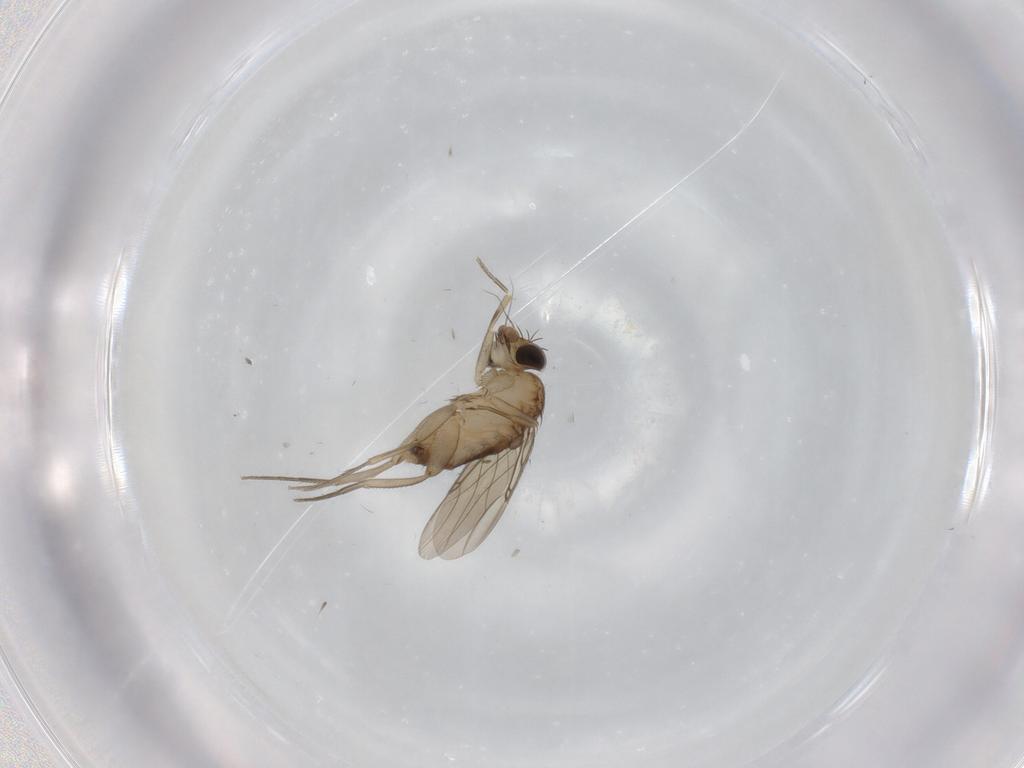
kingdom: Animalia
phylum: Arthropoda
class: Insecta
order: Diptera
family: Phoridae
